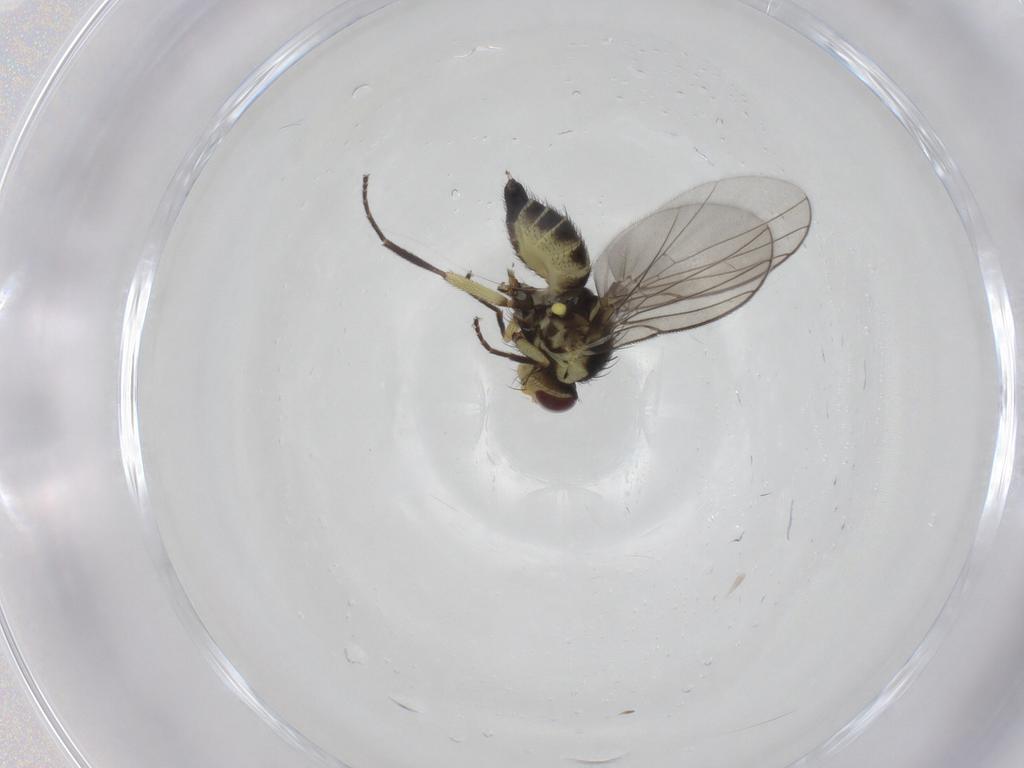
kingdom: Animalia
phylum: Arthropoda
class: Insecta
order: Diptera
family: Agromyzidae
